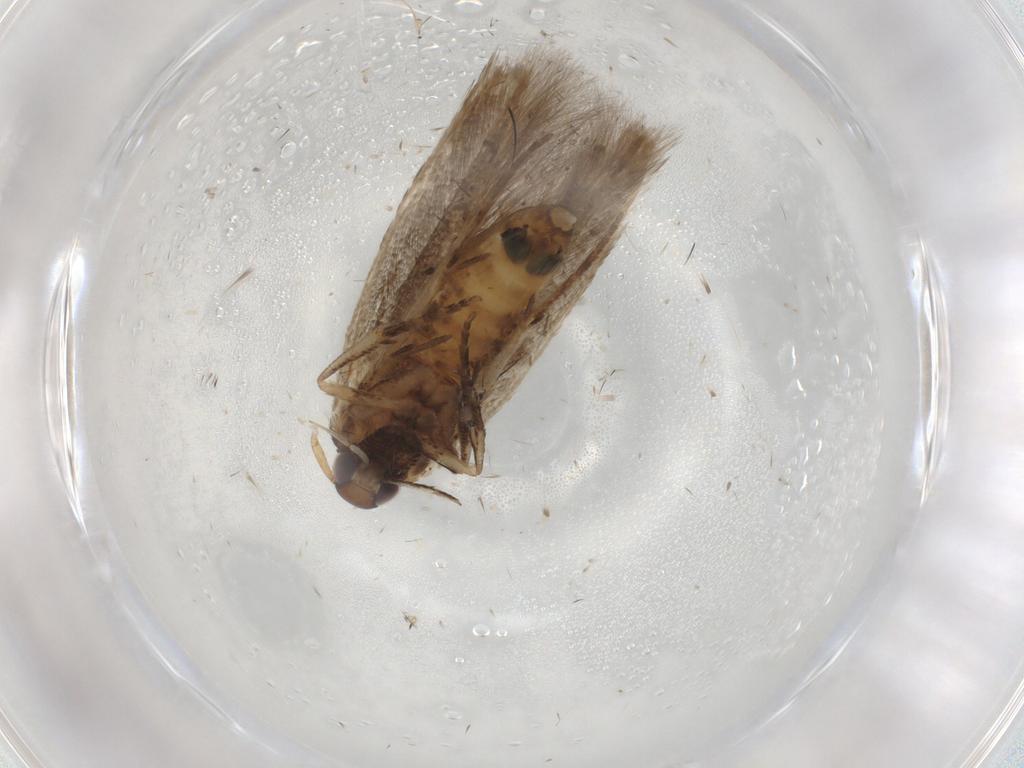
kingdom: Animalia
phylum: Arthropoda
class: Insecta
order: Lepidoptera
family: Cosmopterigidae
